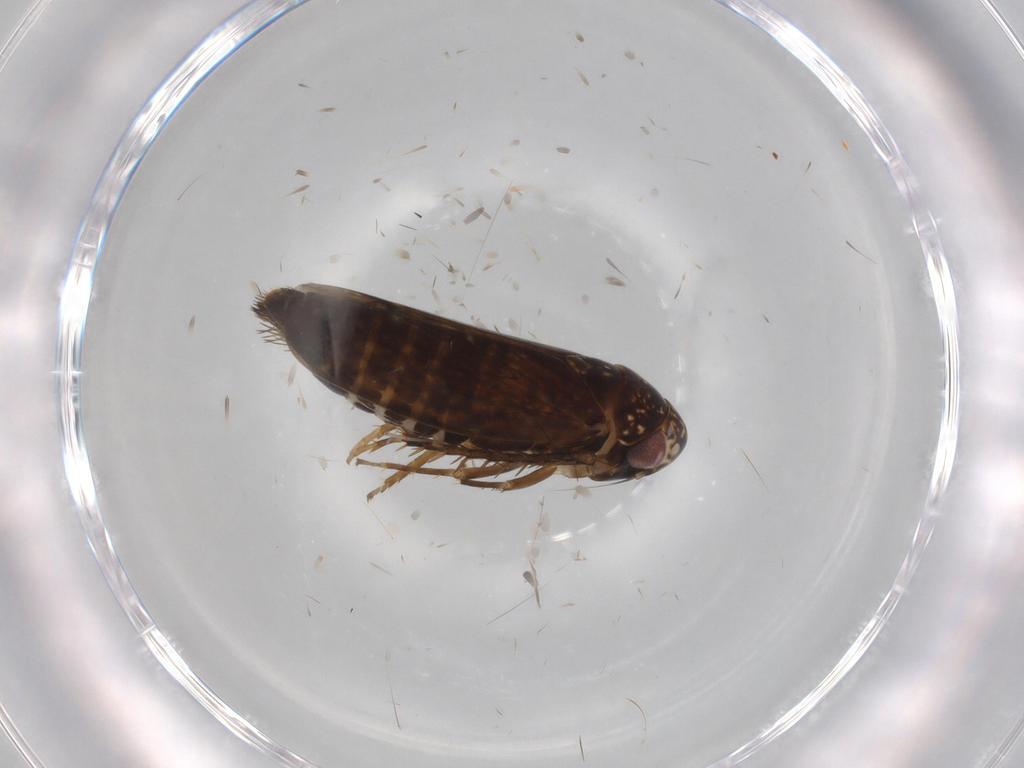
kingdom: Animalia
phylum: Arthropoda
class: Insecta
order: Hemiptera
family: Cicadellidae
